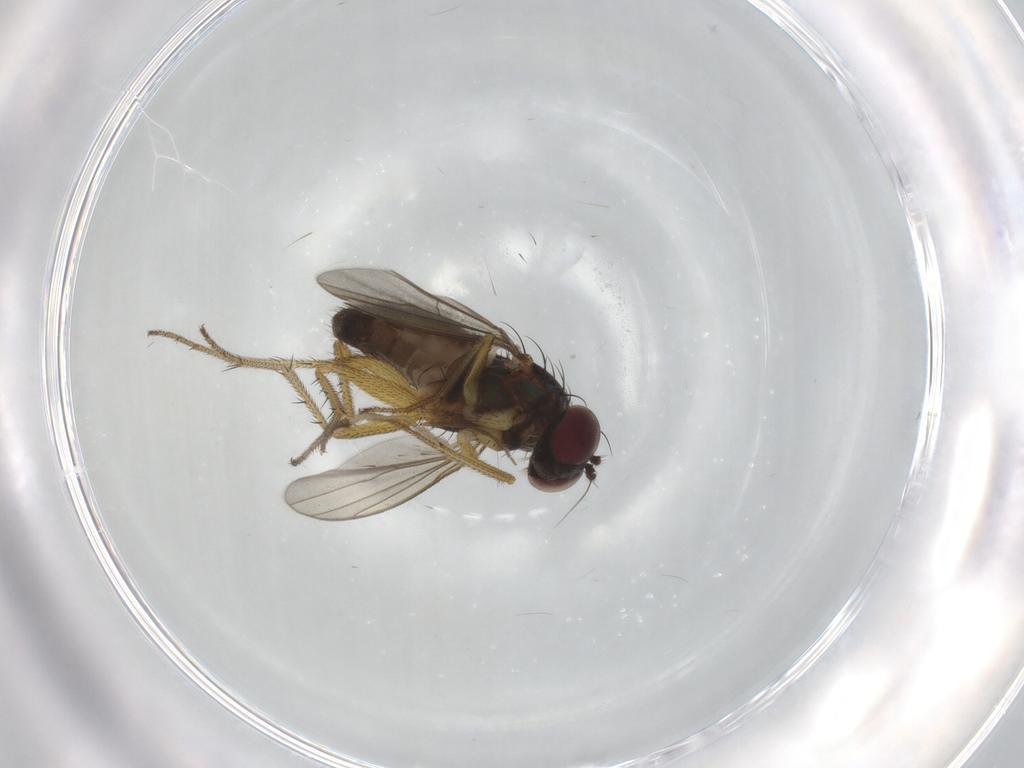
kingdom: Animalia
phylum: Arthropoda
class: Insecta
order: Diptera
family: Chironomidae
